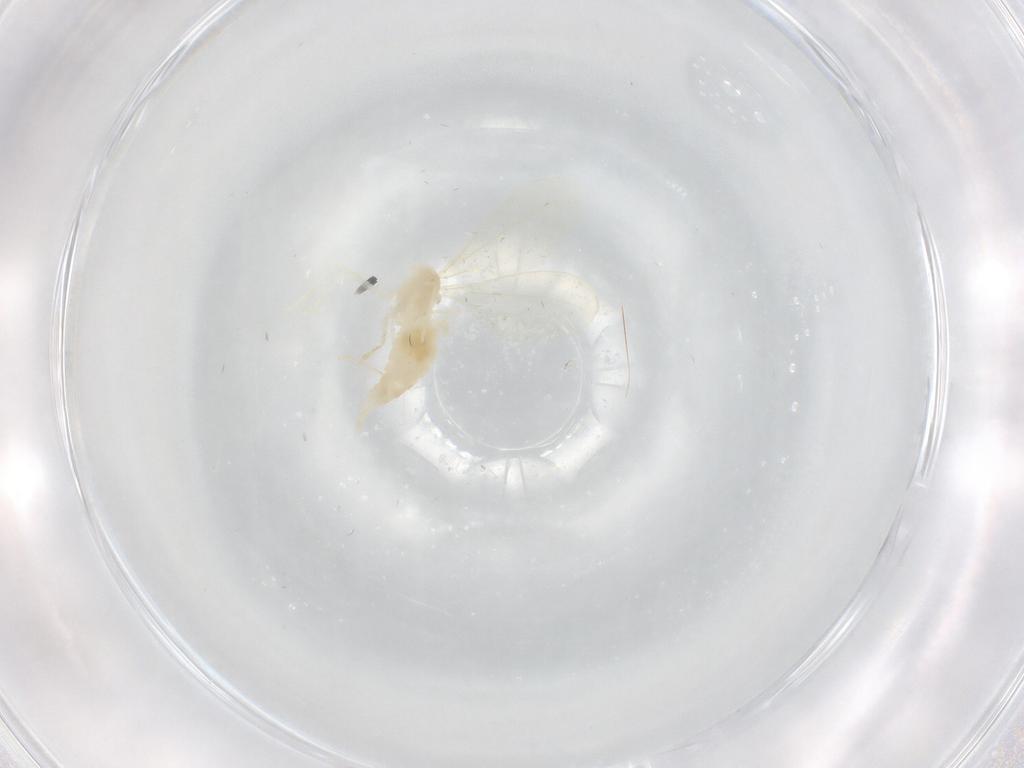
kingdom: Animalia
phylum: Arthropoda
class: Insecta
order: Diptera
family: Cecidomyiidae
